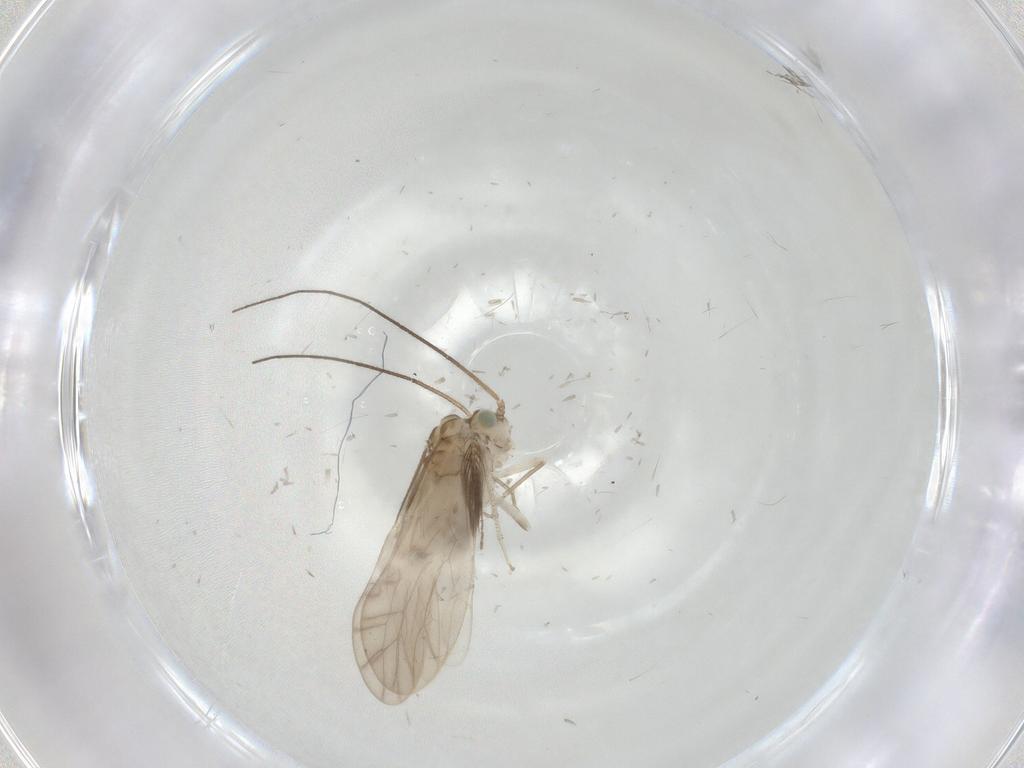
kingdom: Animalia
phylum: Arthropoda
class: Insecta
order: Psocodea
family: Caeciliusidae
